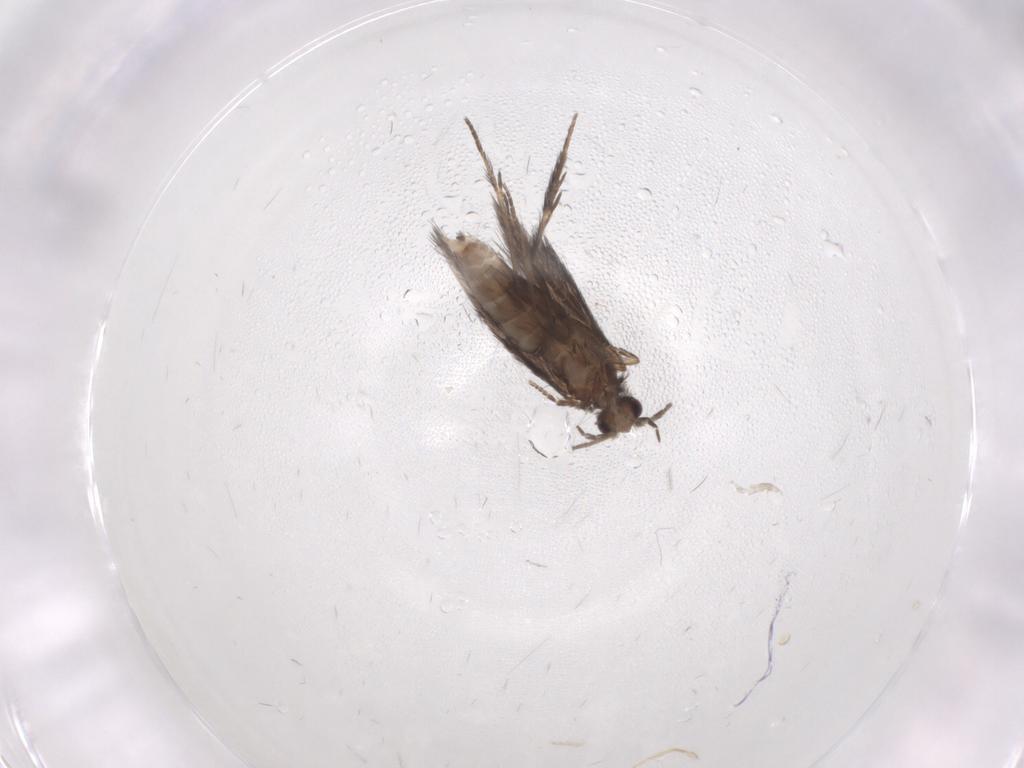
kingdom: Animalia
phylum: Arthropoda
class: Insecta
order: Trichoptera
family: Hydroptilidae
